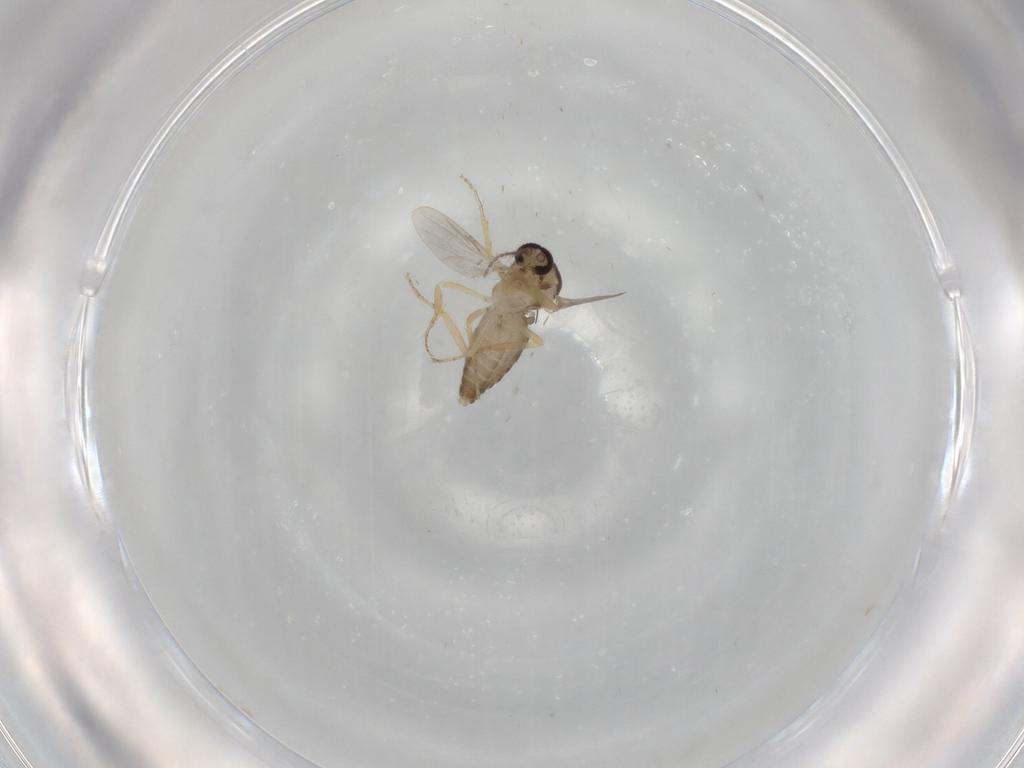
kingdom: Animalia
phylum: Arthropoda
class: Insecta
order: Diptera
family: Ceratopogonidae
